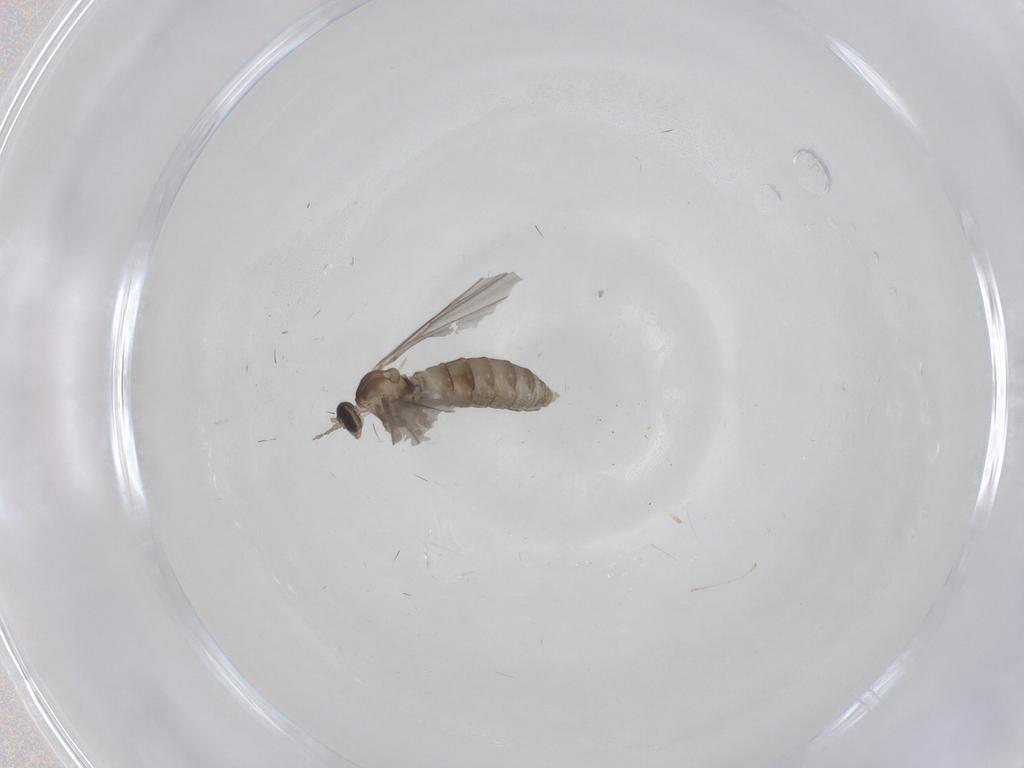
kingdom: Animalia
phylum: Arthropoda
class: Insecta
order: Diptera
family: Cecidomyiidae
